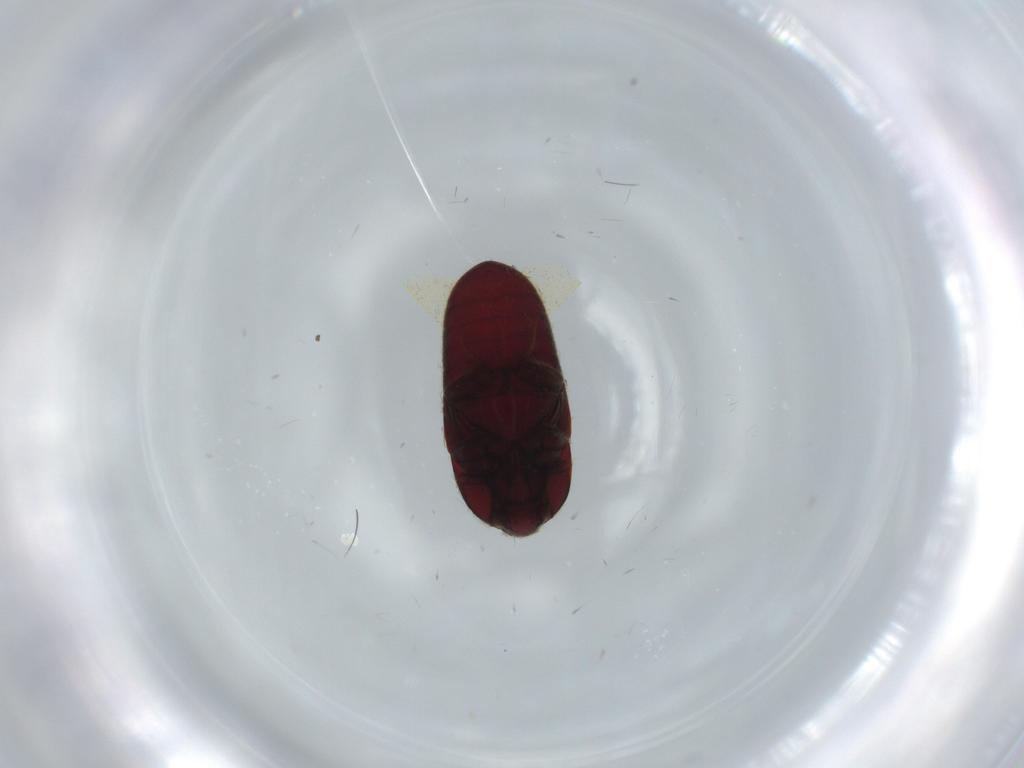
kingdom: Animalia
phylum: Arthropoda
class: Insecta
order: Coleoptera
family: Throscidae
